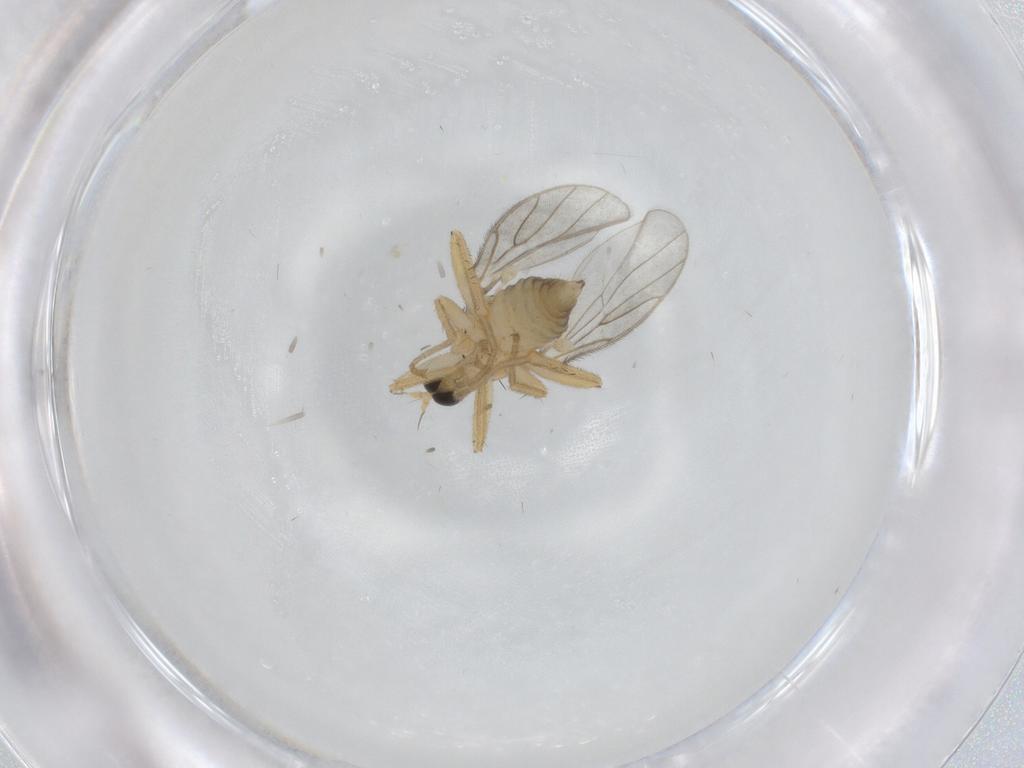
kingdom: Animalia
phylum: Arthropoda
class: Insecta
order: Diptera
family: Hybotidae
